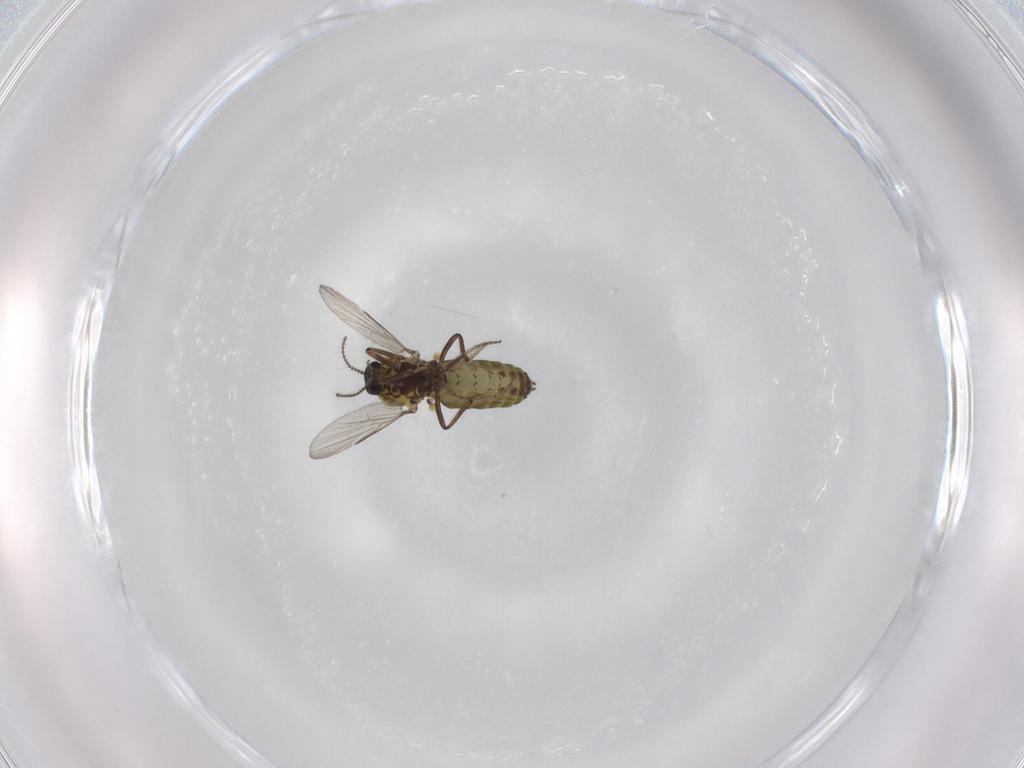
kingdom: Animalia
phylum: Arthropoda
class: Insecta
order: Diptera
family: Ceratopogonidae
